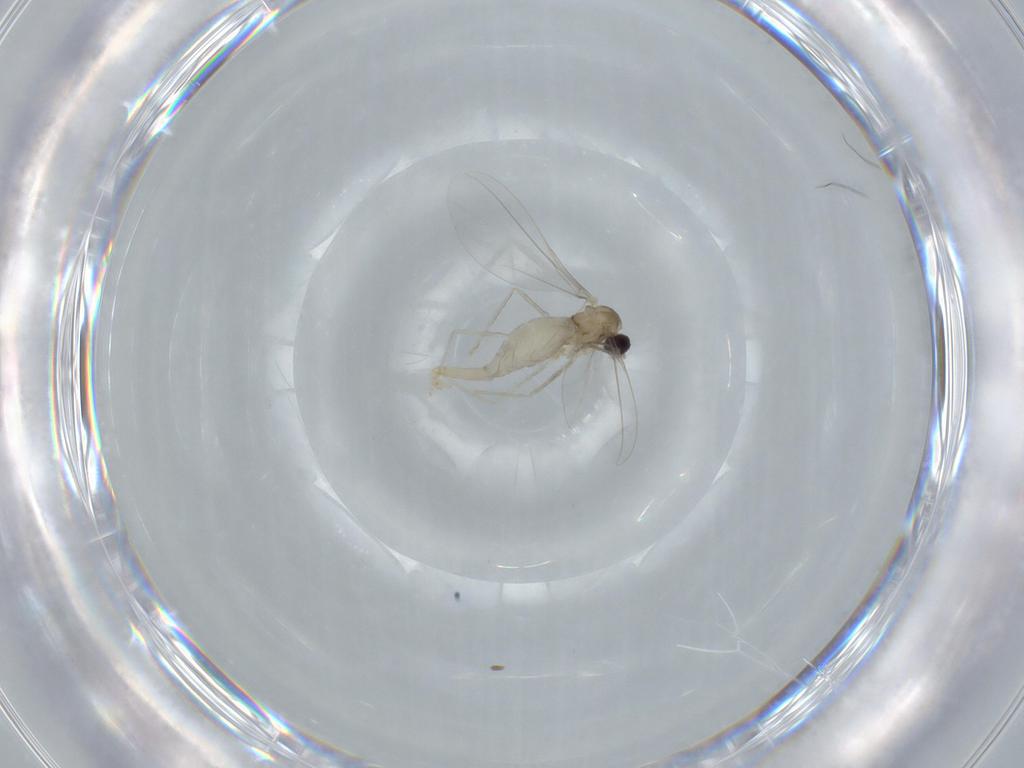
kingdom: Animalia
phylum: Arthropoda
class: Insecta
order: Diptera
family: Cecidomyiidae
